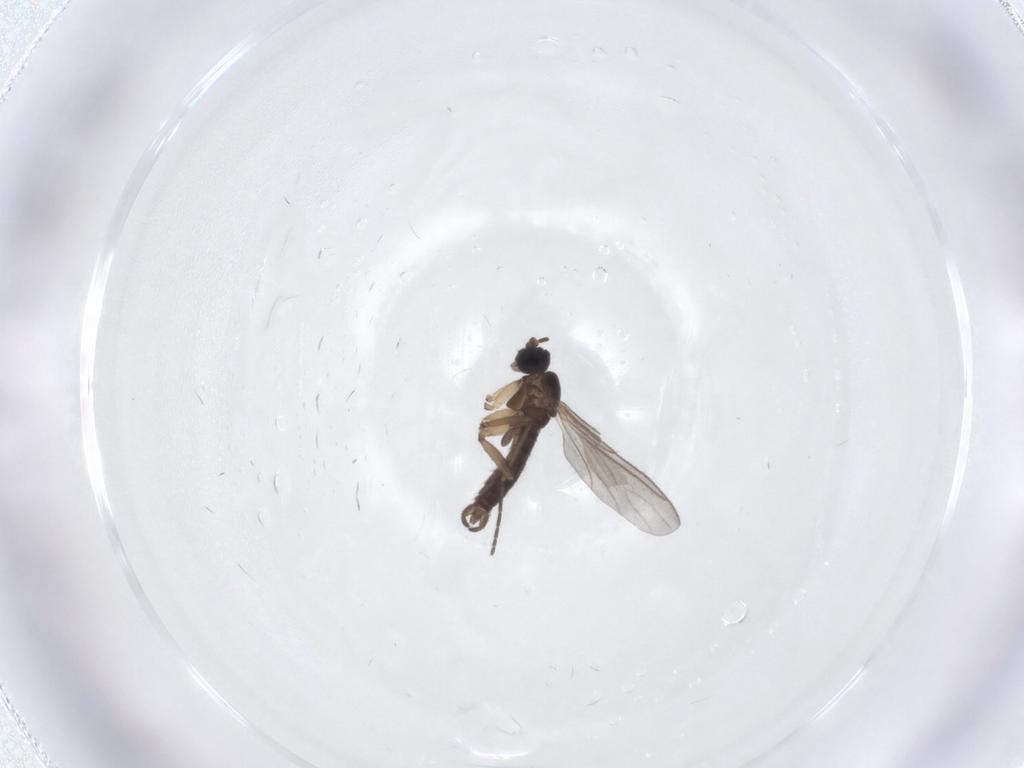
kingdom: Animalia
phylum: Arthropoda
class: Insecta
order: Diptera
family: Sciaridae
